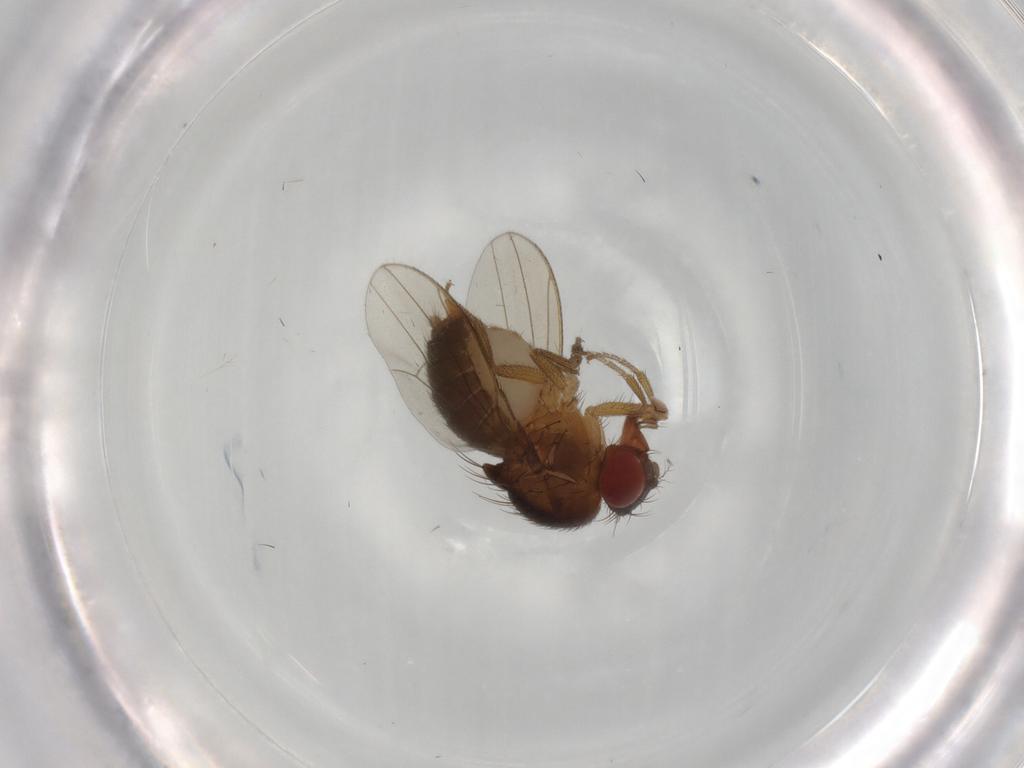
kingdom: Animalia
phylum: Arthropoda
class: Insecta
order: Diptera
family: Drosophilidae
